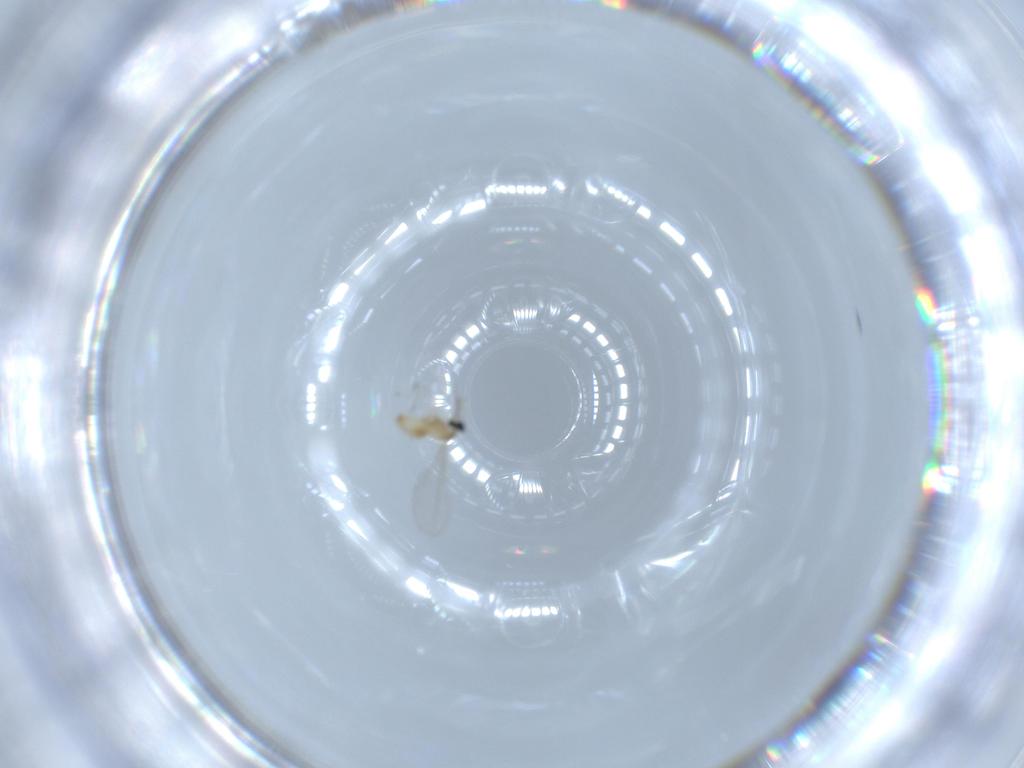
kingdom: Animalia
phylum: Arthropoda
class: Insecta
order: Diptera
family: Cecidomyiidae
